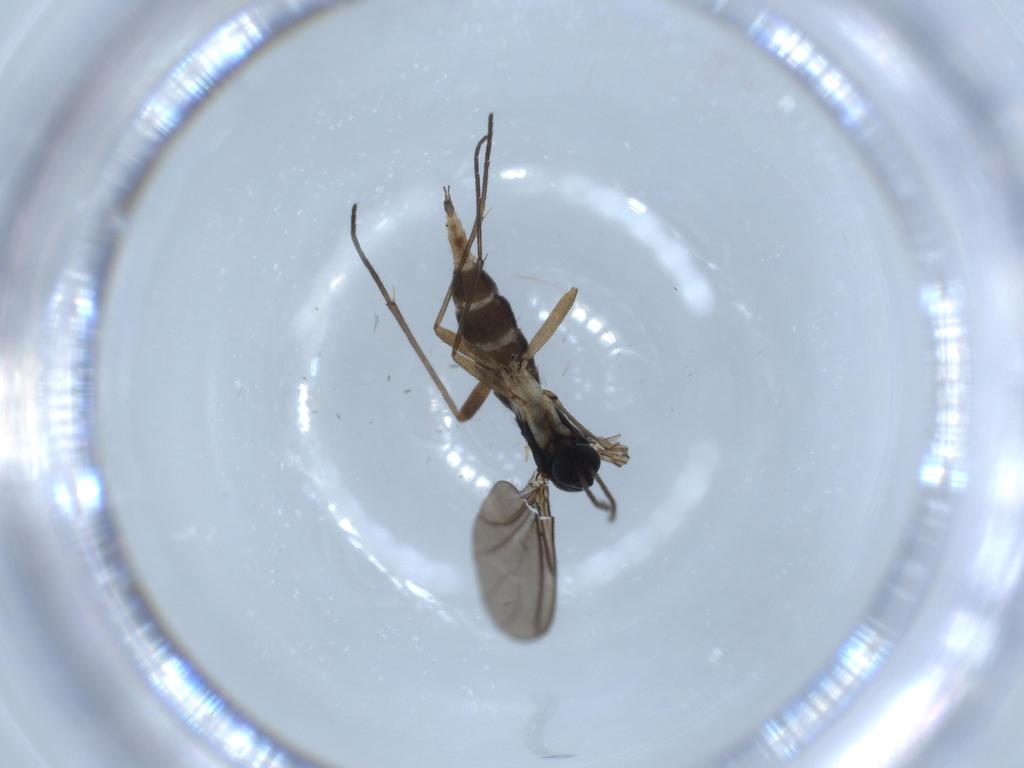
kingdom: Animalia
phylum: Arthropoda
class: Insecta
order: Diptera
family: Sciaridae
